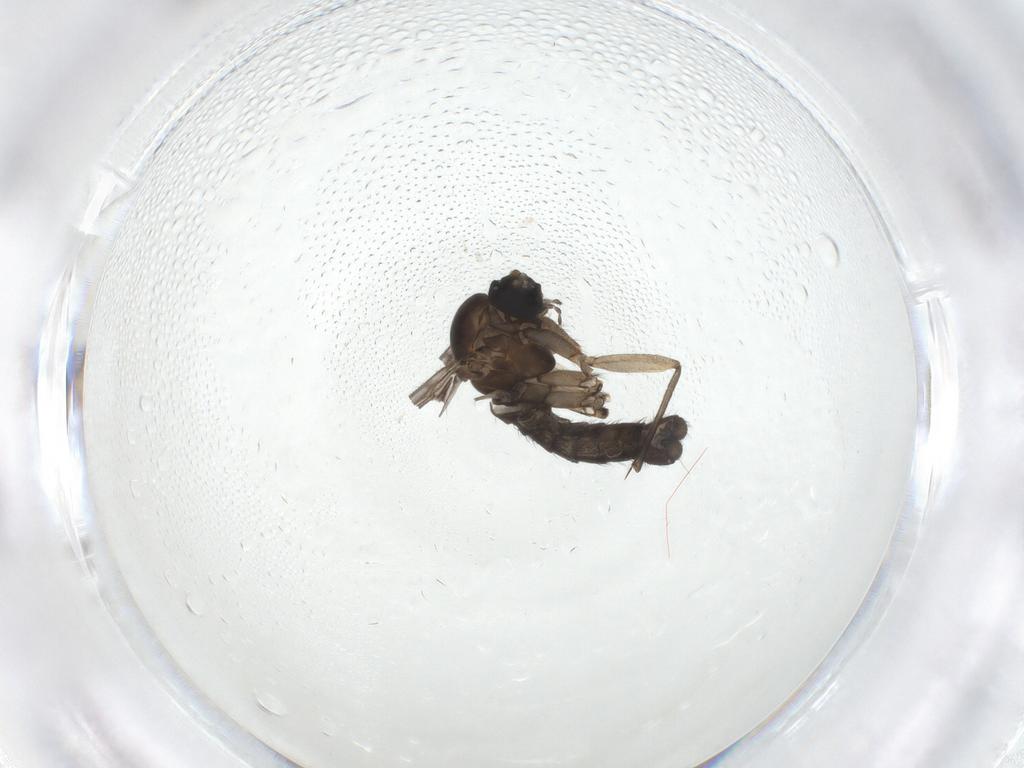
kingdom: Animalia
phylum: Arthropoda
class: Insecta
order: Diptera
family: Sciaridae
